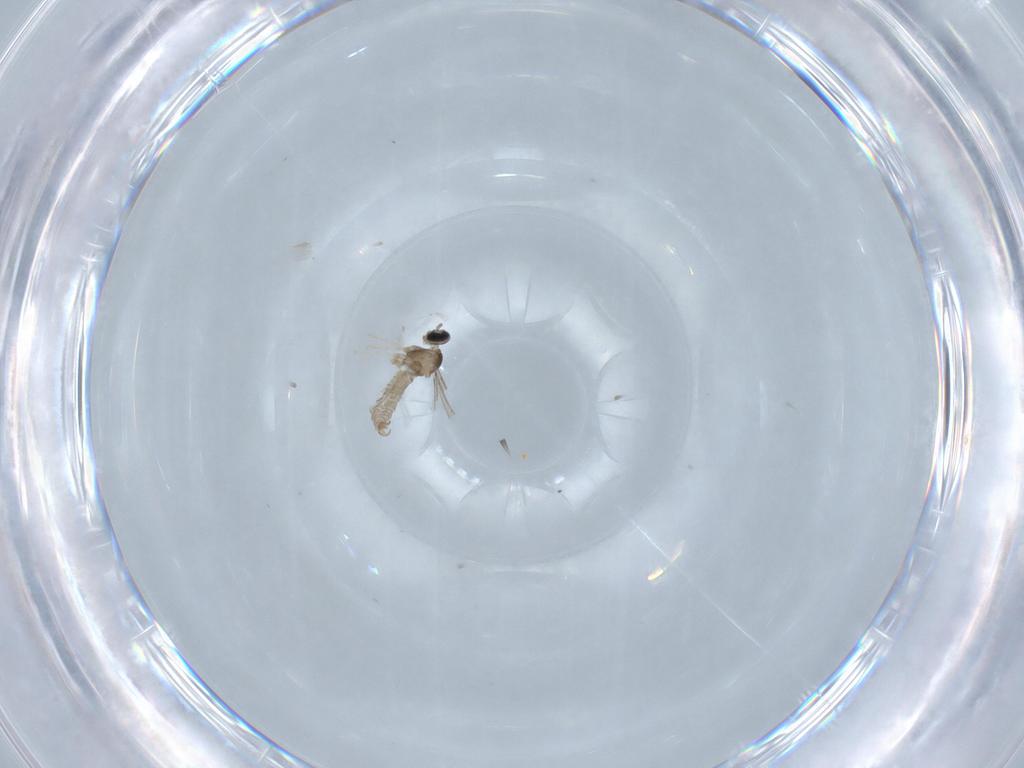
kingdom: Animalia
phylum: Arthropoda
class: Insecta
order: Diptera
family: Cecidomyiidae
